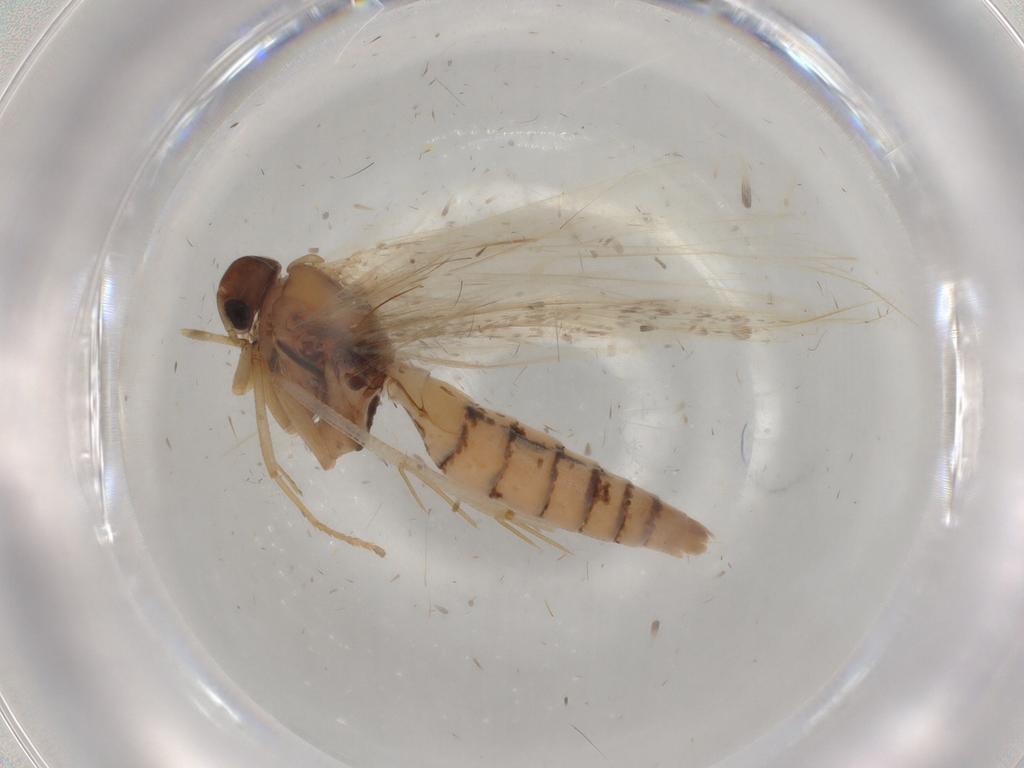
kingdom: Animalia
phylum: Arthropoda
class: Insecta
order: Lepidoptera
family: Gelechiidae
